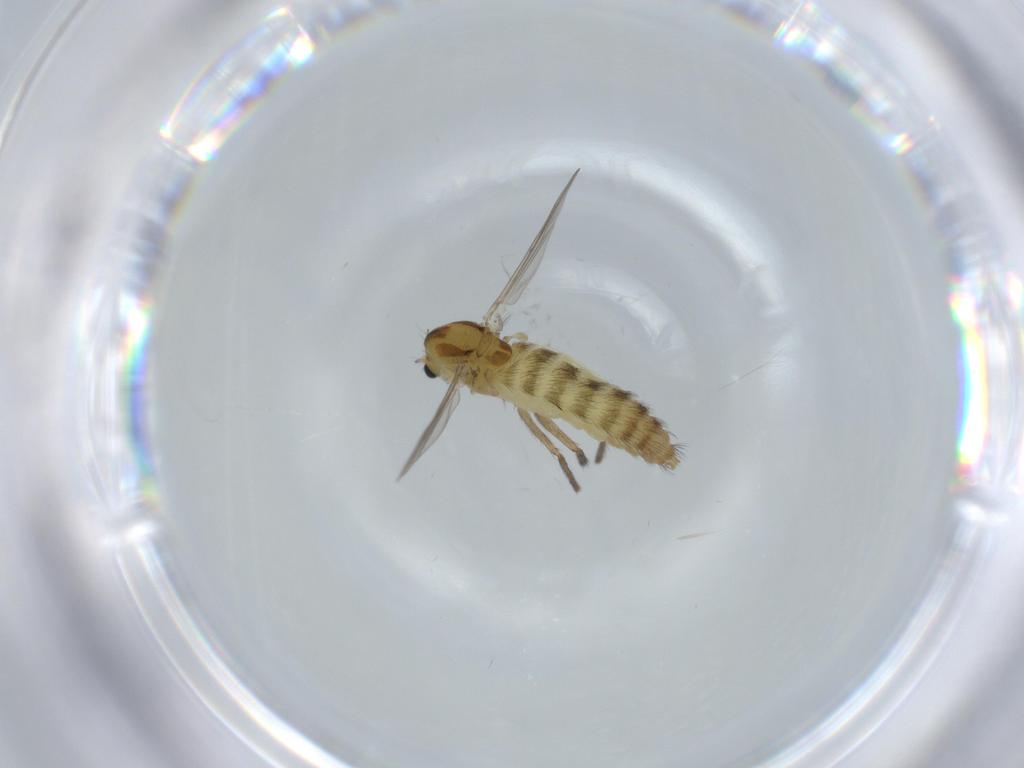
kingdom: Animalia
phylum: Arthropoda
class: Insecta
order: Diptera
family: Chironomidae
